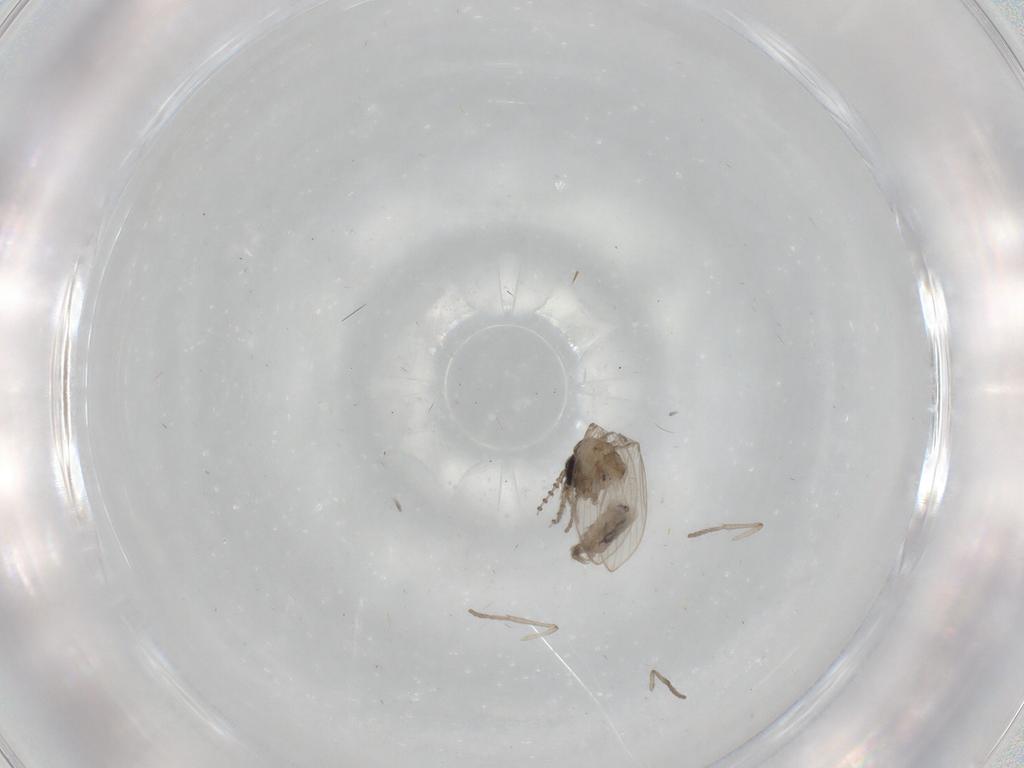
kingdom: Animalia
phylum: Arthropoda
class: Insecta
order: Diptera
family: Psychodidae
